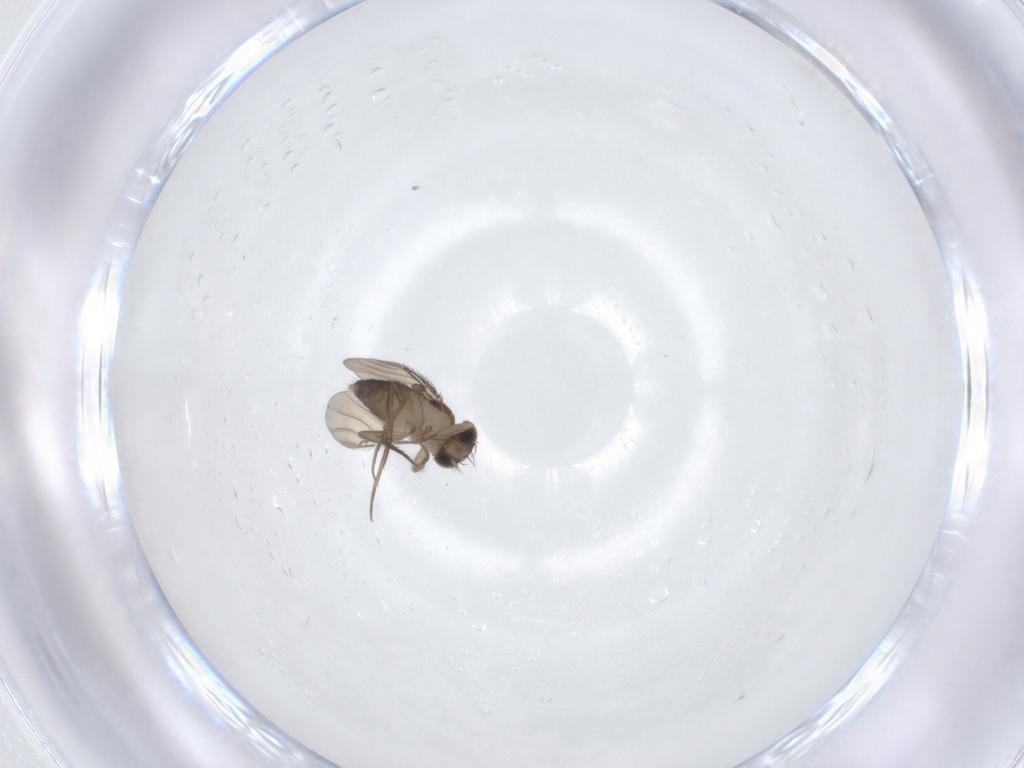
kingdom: Animalia
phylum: Arthropoda
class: Insecta
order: Diptera
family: Phoridae
